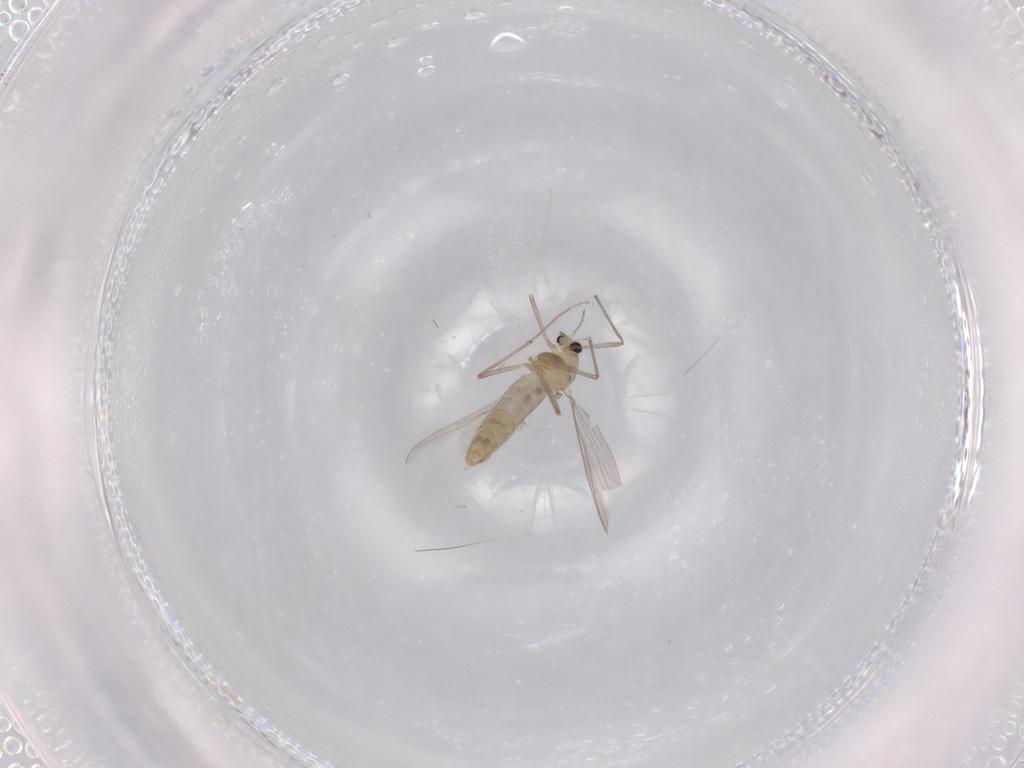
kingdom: Animalia
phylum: Arthropoda
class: Insecta
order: Diptera
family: Chironomidae
